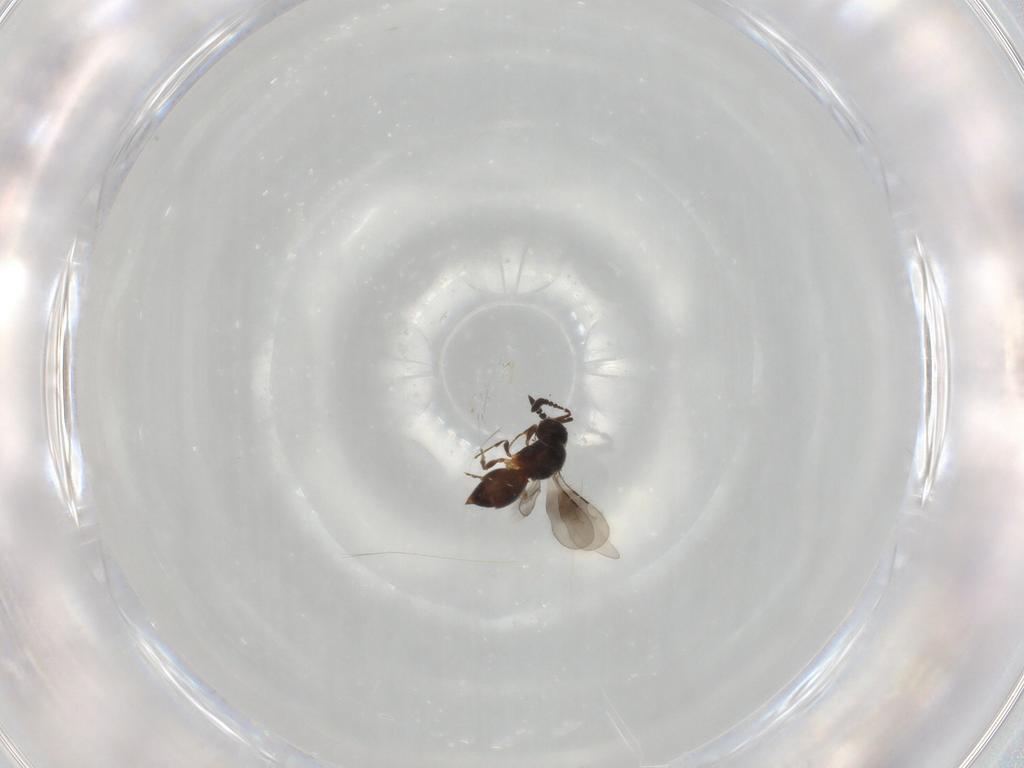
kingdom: Animalia
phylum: Arthropoda
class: Insecta
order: Hymenoptera
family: Ceraphronidae
